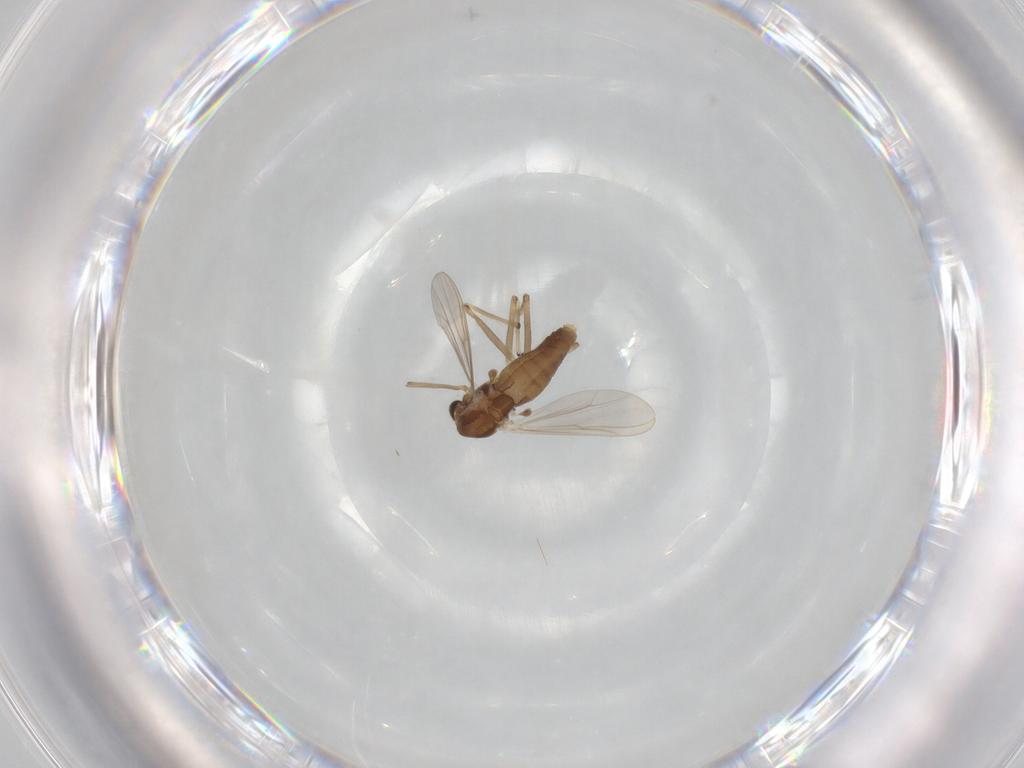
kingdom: Animalia
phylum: Arthropoda
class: Insecta
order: Diptera
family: Chironomidae
